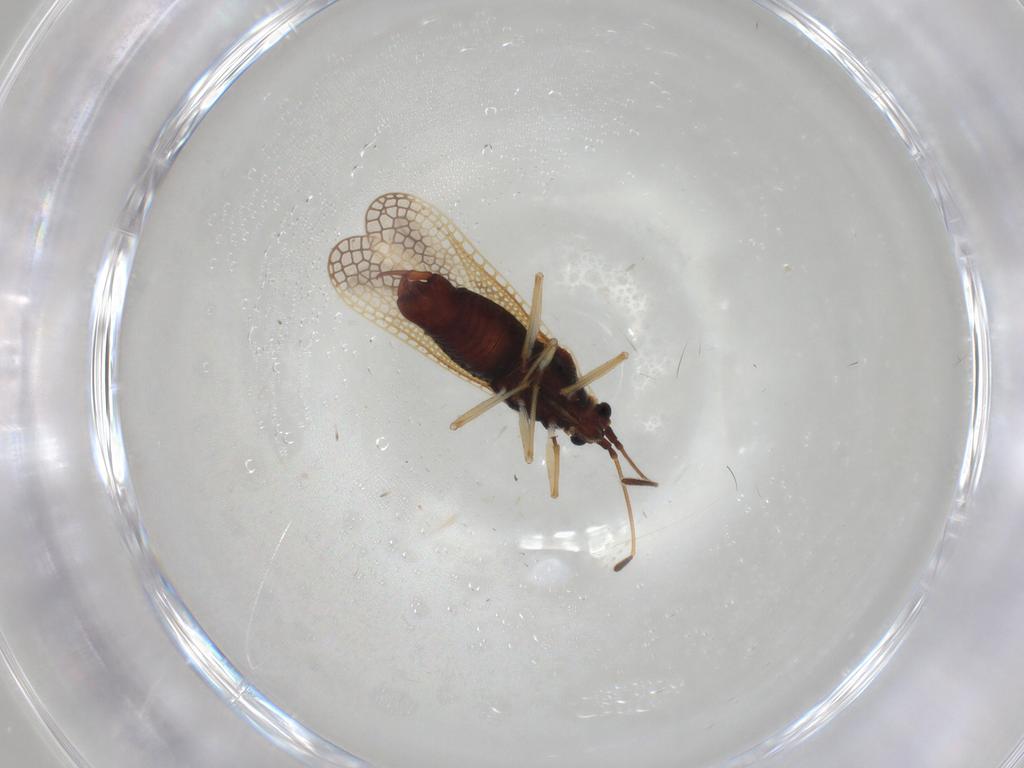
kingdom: Animalia
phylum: Arthropoda
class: Insecta
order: Hemiptera
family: Tingidae
